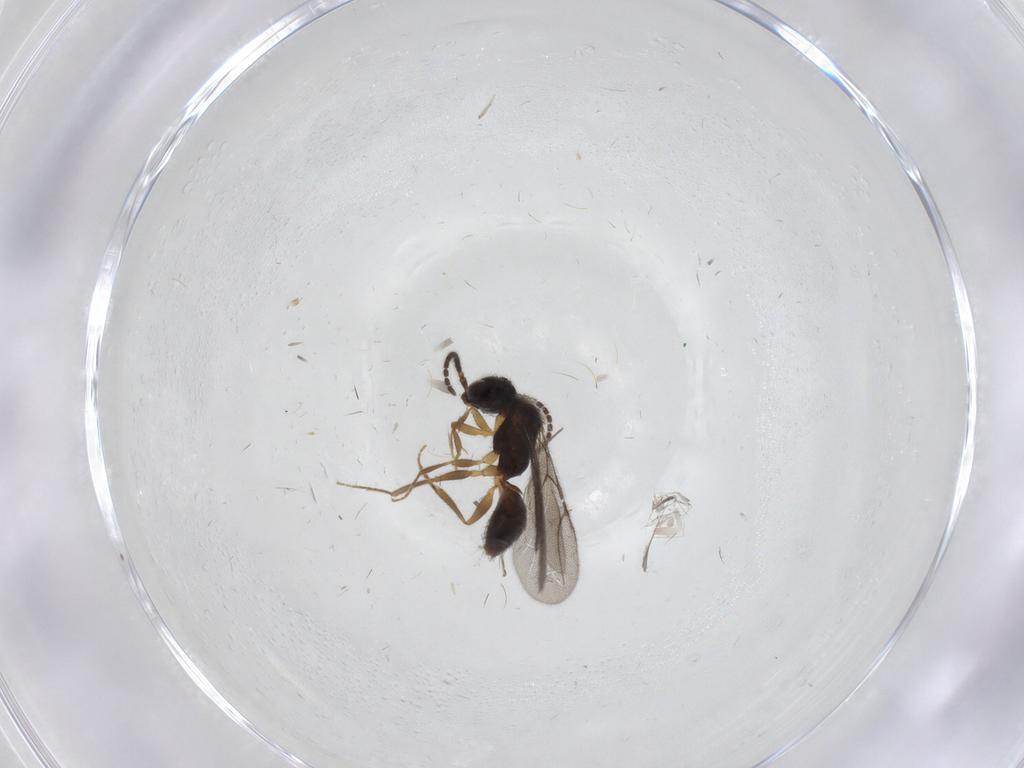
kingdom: Animalia
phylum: Arthropoda
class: Insecta
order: Hymenoptera
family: Bethylidae
